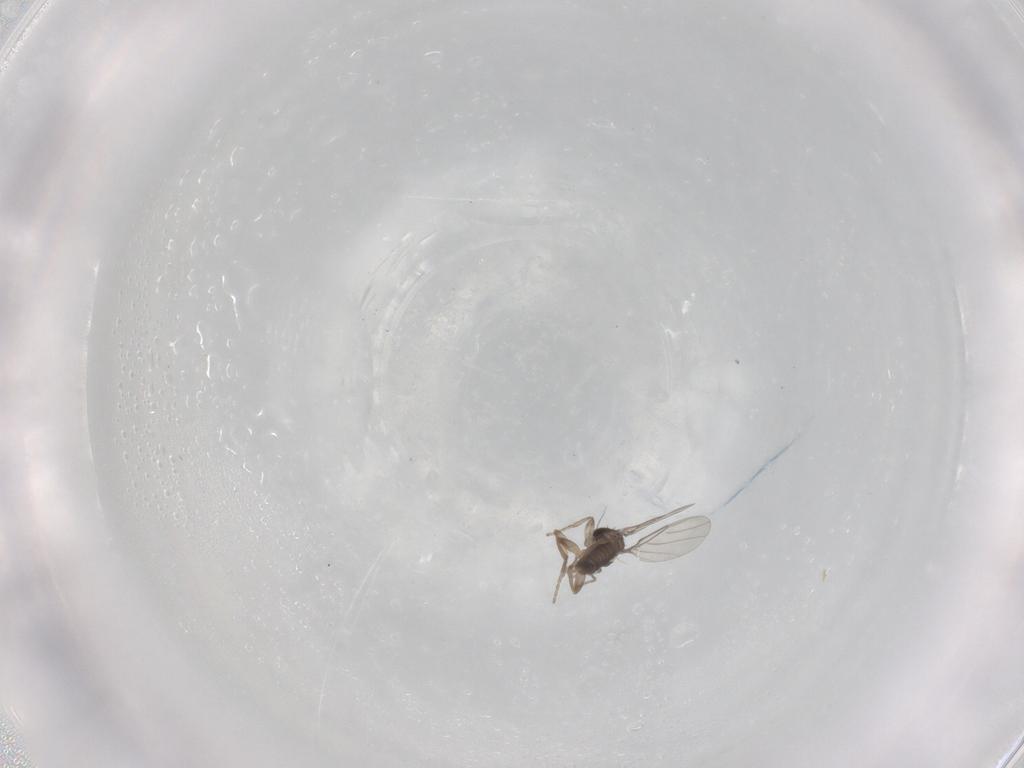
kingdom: Animalia
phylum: Arthropoda
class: Insecta
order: Diptera
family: Phoridae
